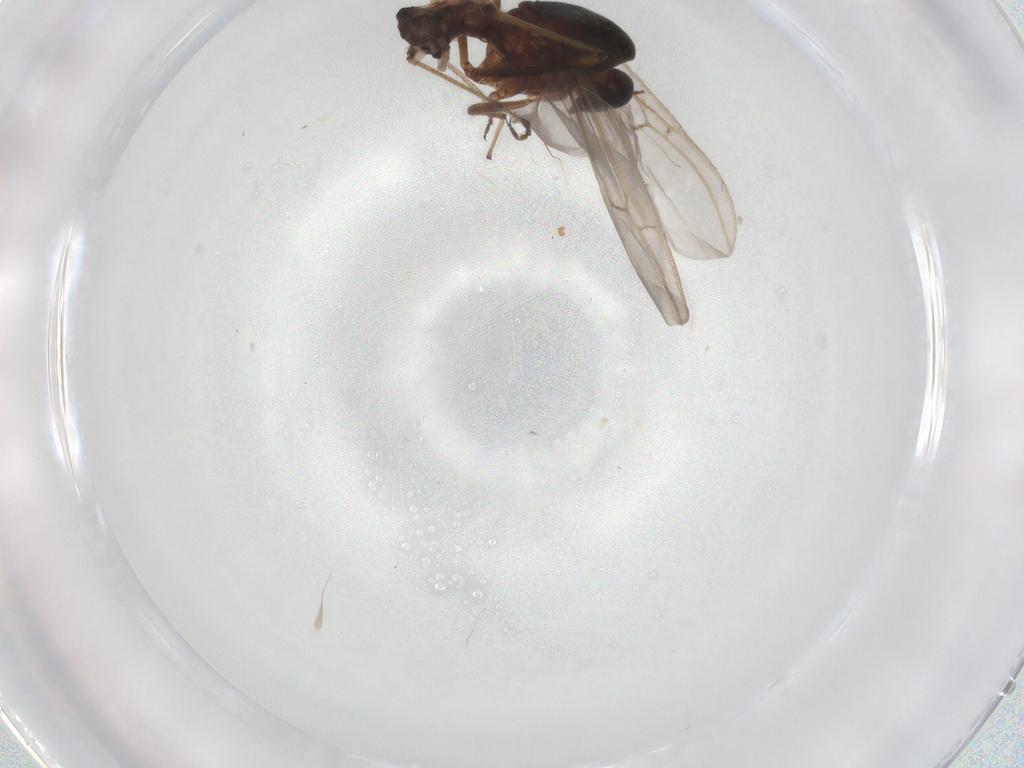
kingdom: Animalia
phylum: Arthropoda
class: Insecta
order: Diptera
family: Ceratopogonidae
